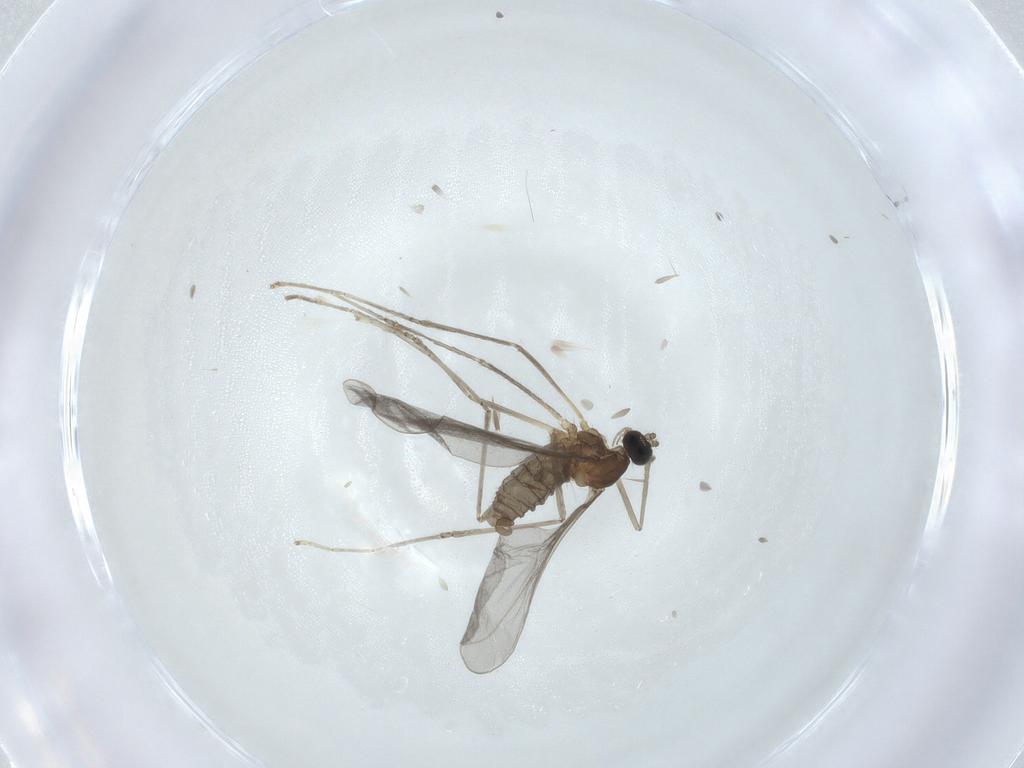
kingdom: Animalia
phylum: Arthropoda
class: Insecta
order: Diptera
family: Cecidomyiidae
